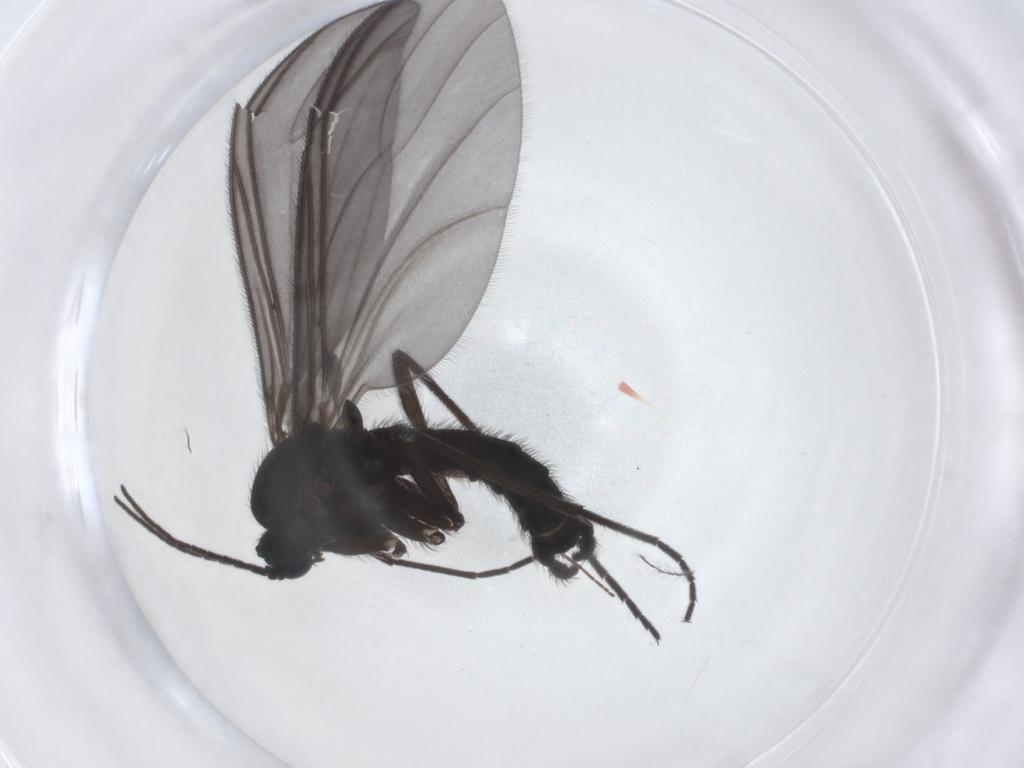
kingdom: Animalia
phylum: Arthropoda
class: Insecta
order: Diptera
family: Sciaridae
